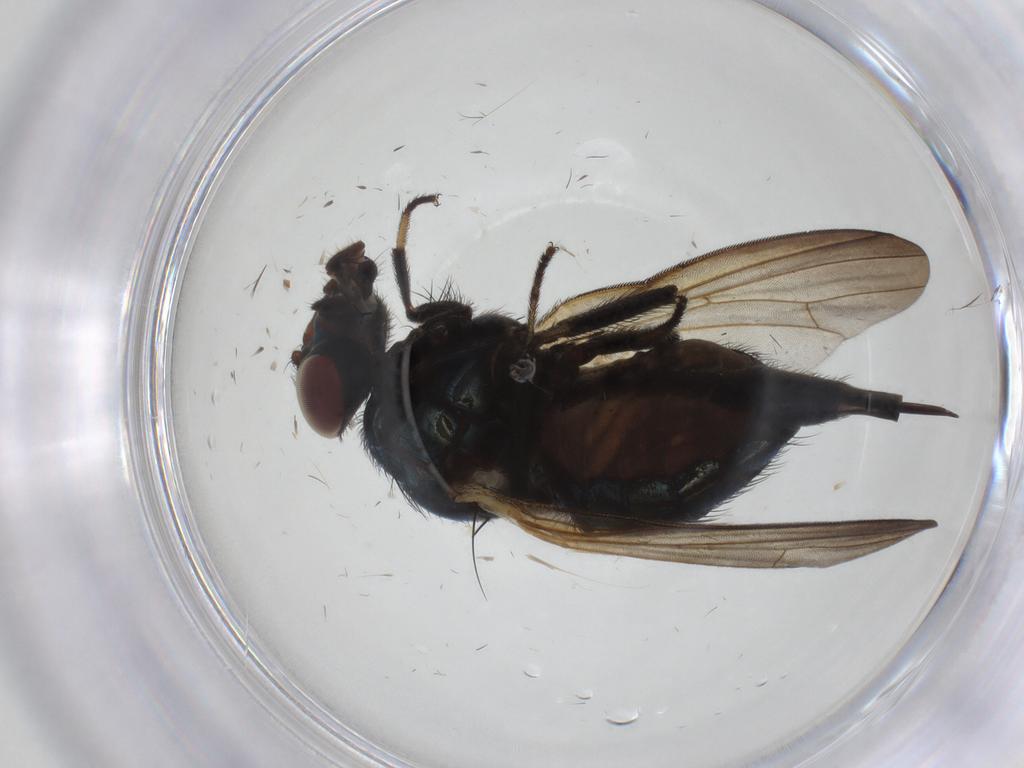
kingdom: Animalia
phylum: Arthropoda
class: Insecta
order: Diptera
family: Lonchaeidae
